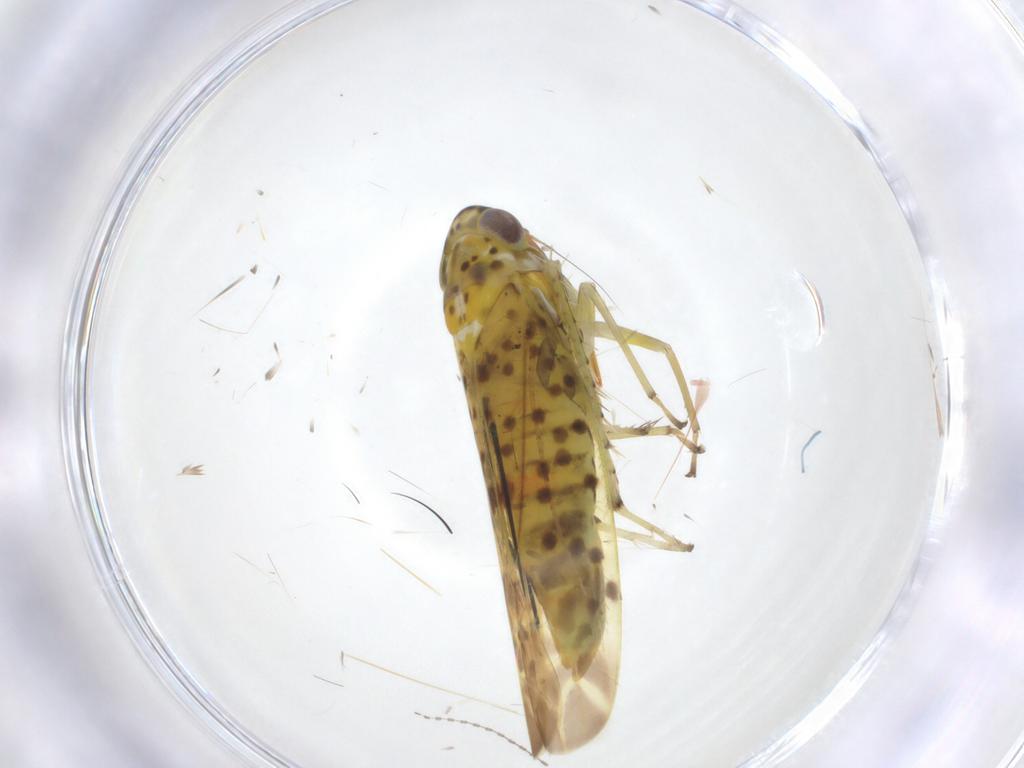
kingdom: Animalia
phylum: Arthropoda
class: Insecta
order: Hemiptera
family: Cicadellidae
